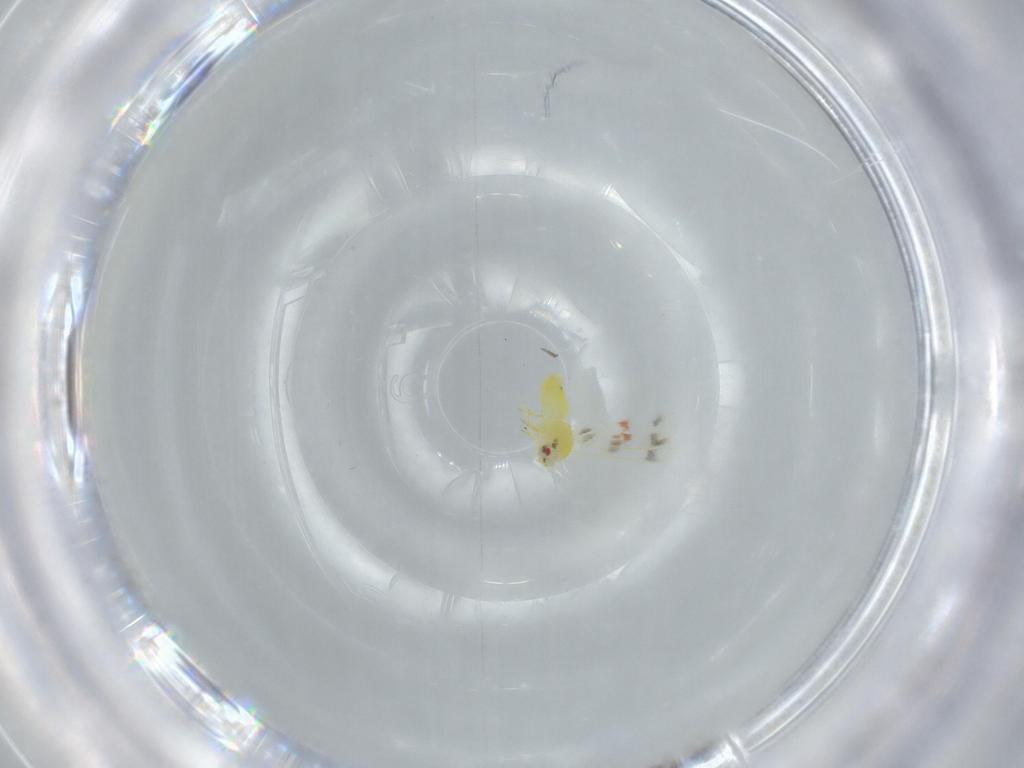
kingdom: Animalia
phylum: Arthropoda
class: Insecta
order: Hemiptera
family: Aleyrodidae
